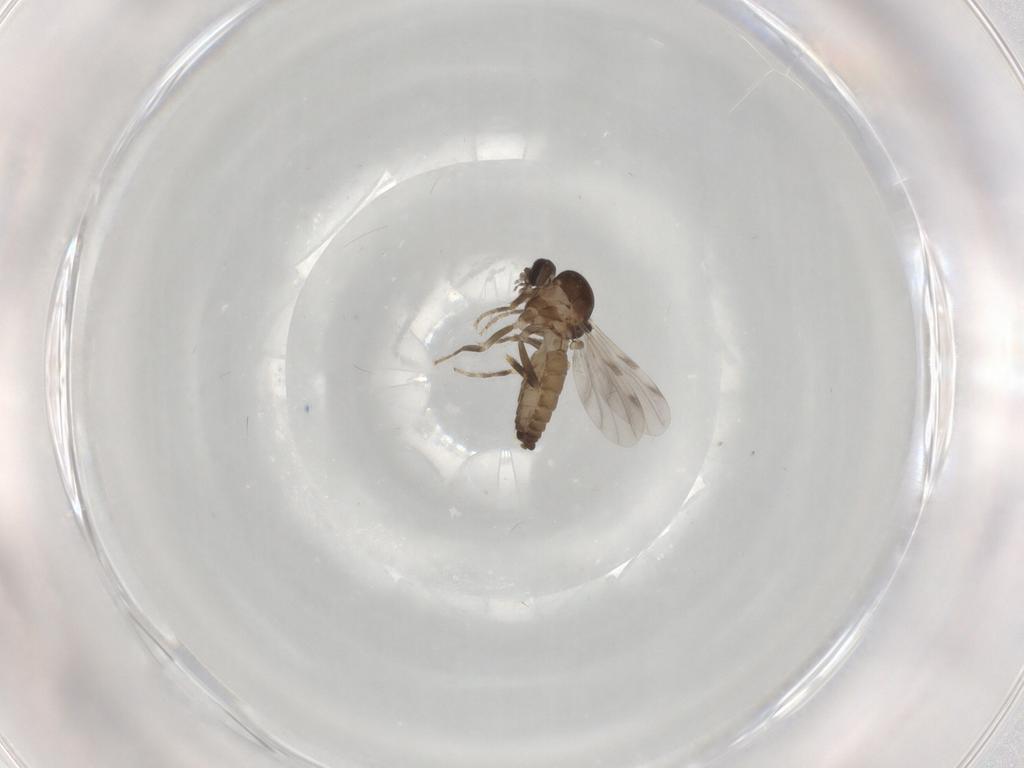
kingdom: Animalia
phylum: Arthropoda
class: Insecta
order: Diptera
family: Ceratopogonidae
